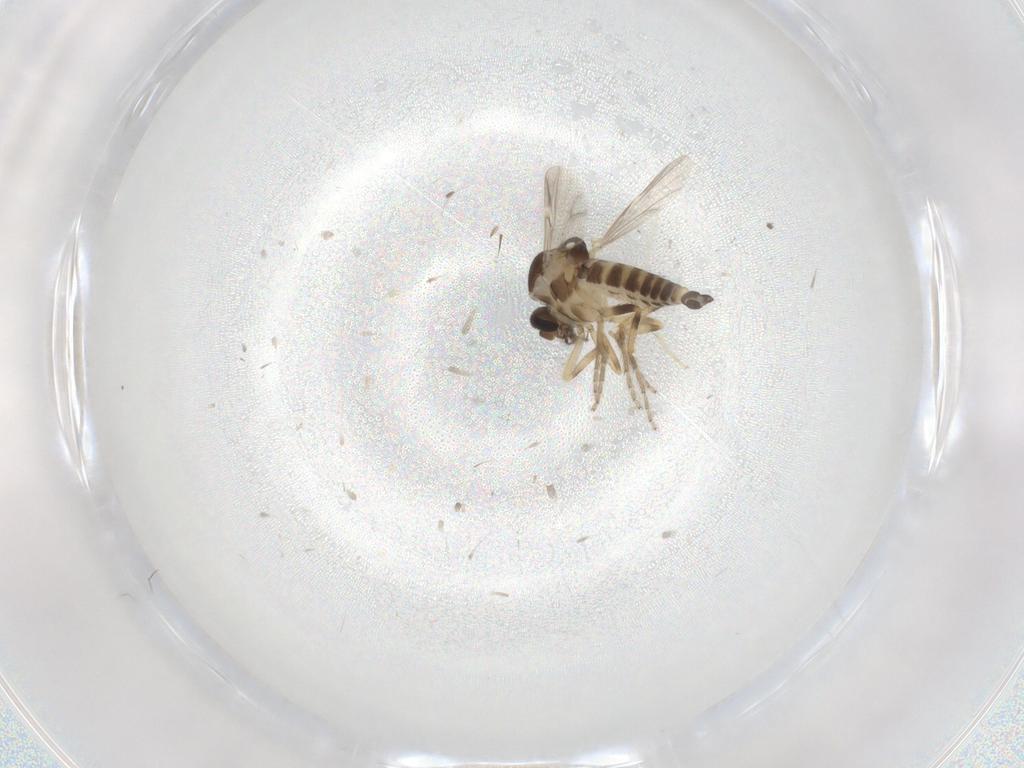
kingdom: Animalia
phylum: Arthropoda
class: Insecta
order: Diptera
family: Ceratopogonidae
